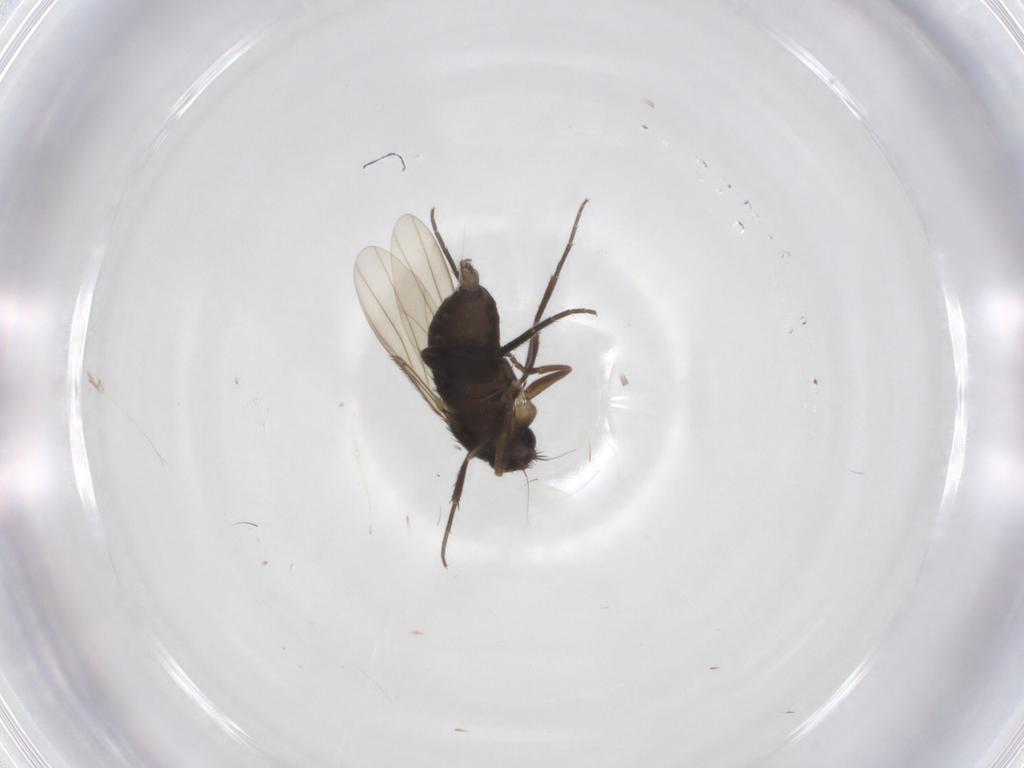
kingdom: Animalia
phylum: Arthropoda
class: Insecta
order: Diptera
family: Phoridae
